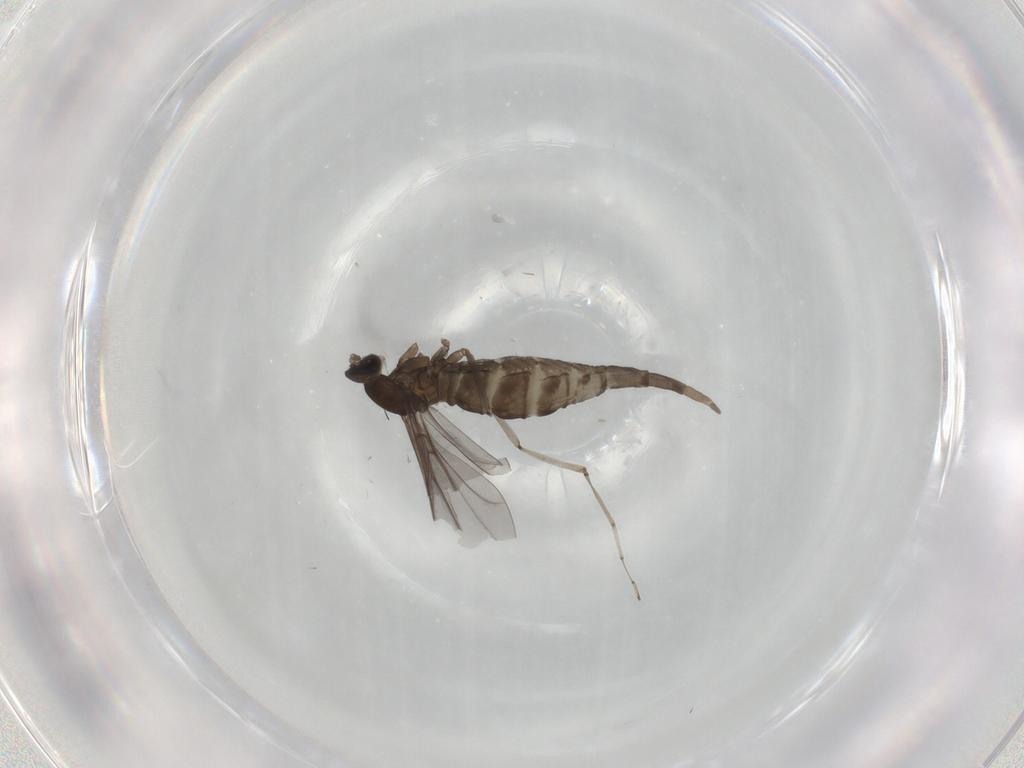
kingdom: Animalia
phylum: Arthropoda
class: Insecta
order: Diptera
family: Cecidomyiidae
